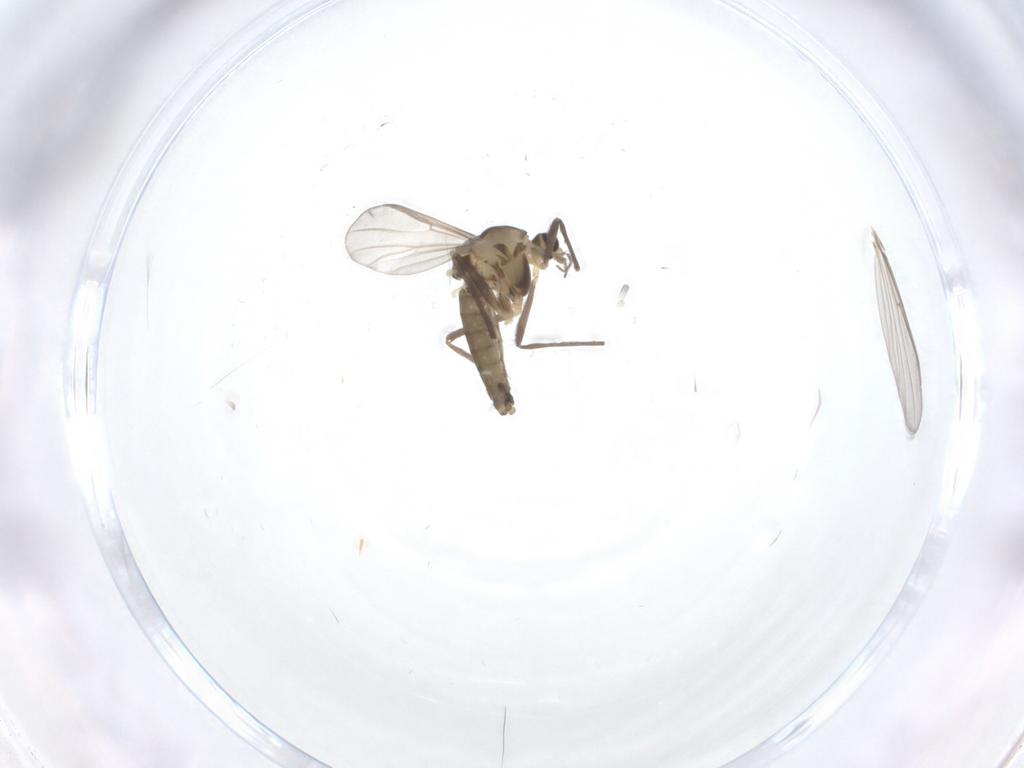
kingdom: Animalia
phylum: Arthropoda
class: Insecta
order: Diptera
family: Chironomidae
